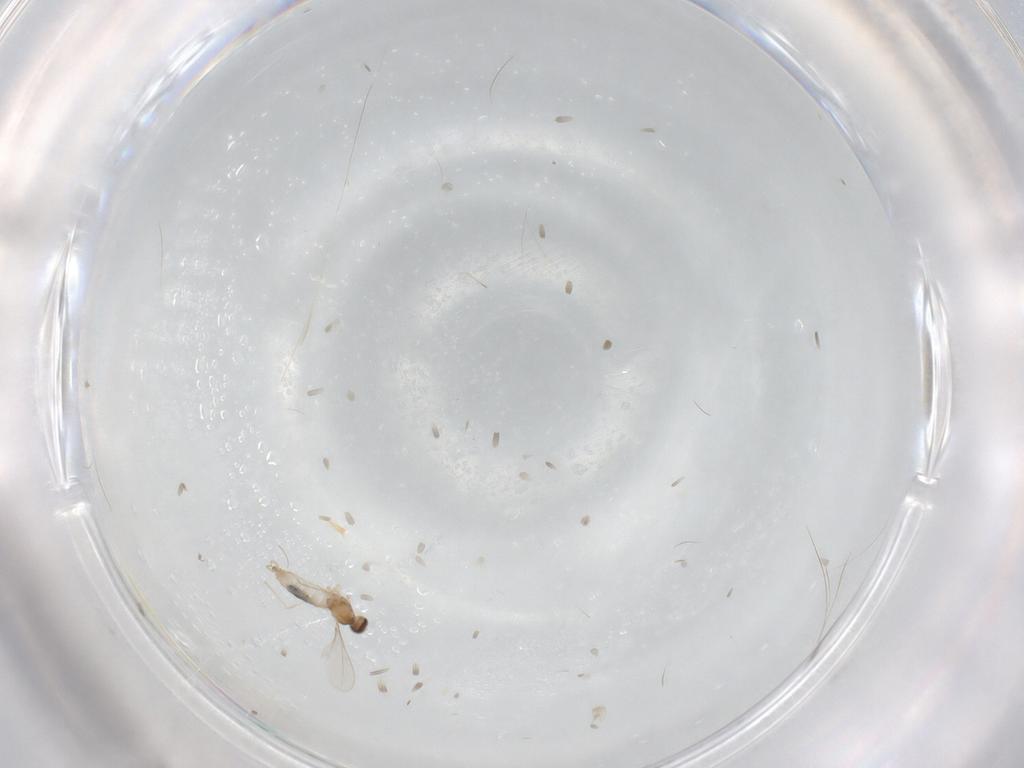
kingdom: Animalia
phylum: Arthropoda
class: Insecta
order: Diptera
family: Cecidomyiidae
